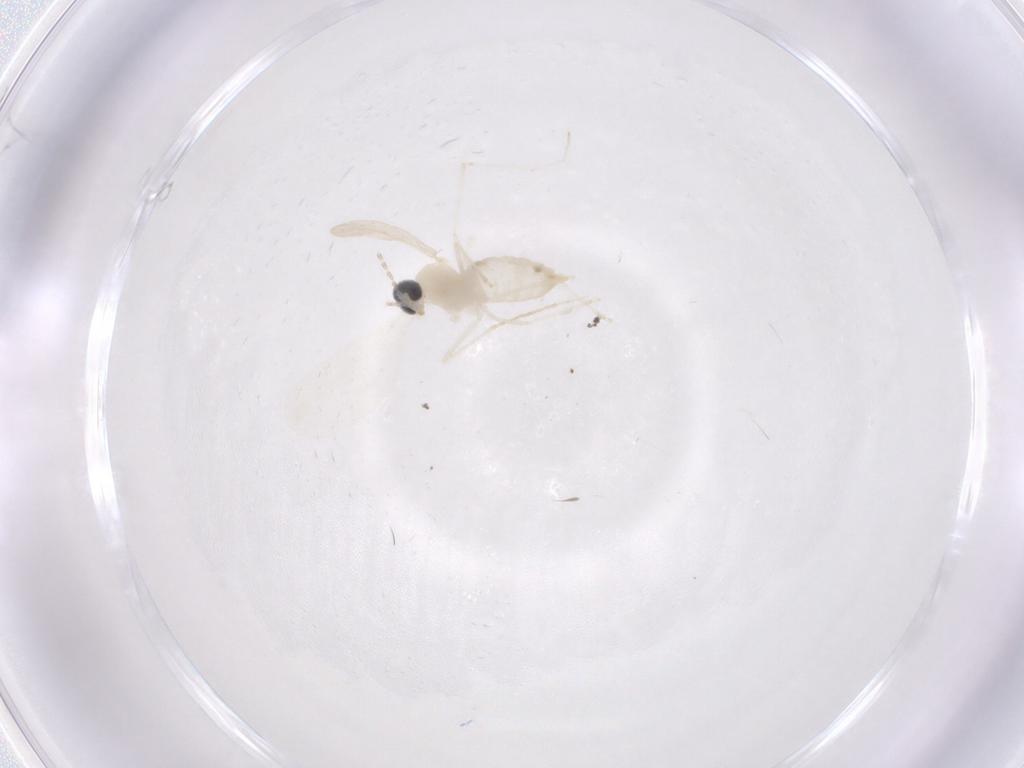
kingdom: Animalia
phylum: Arthropoda
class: Insecta
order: Diptera
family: Cecidomyiidae
